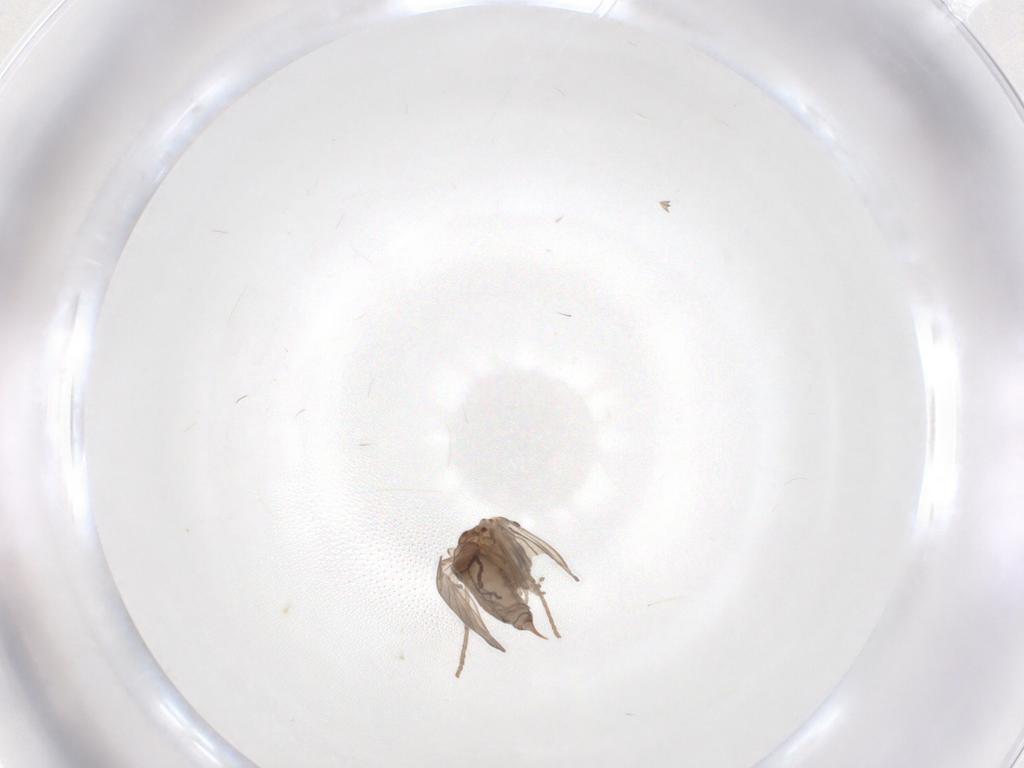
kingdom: Animalia
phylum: Arthropoda
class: Insecta
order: Diptera
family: Psychodidae
